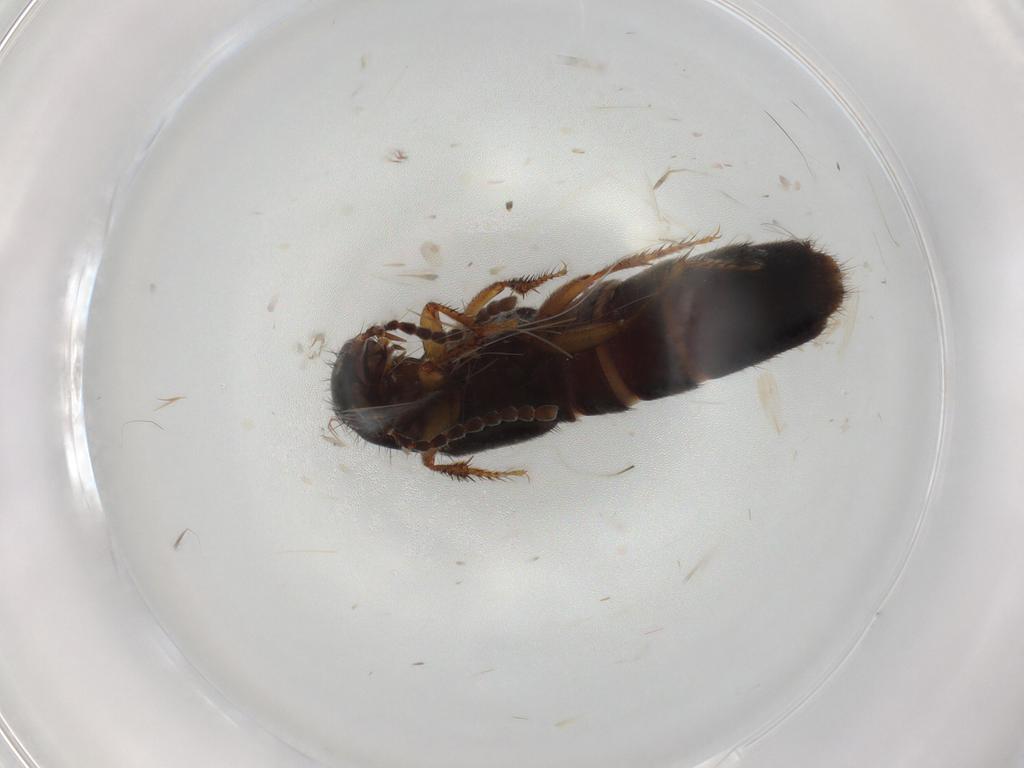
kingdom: Animalia
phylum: Arthropoda
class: Insecta
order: Coleoptera
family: Staphylinidae
